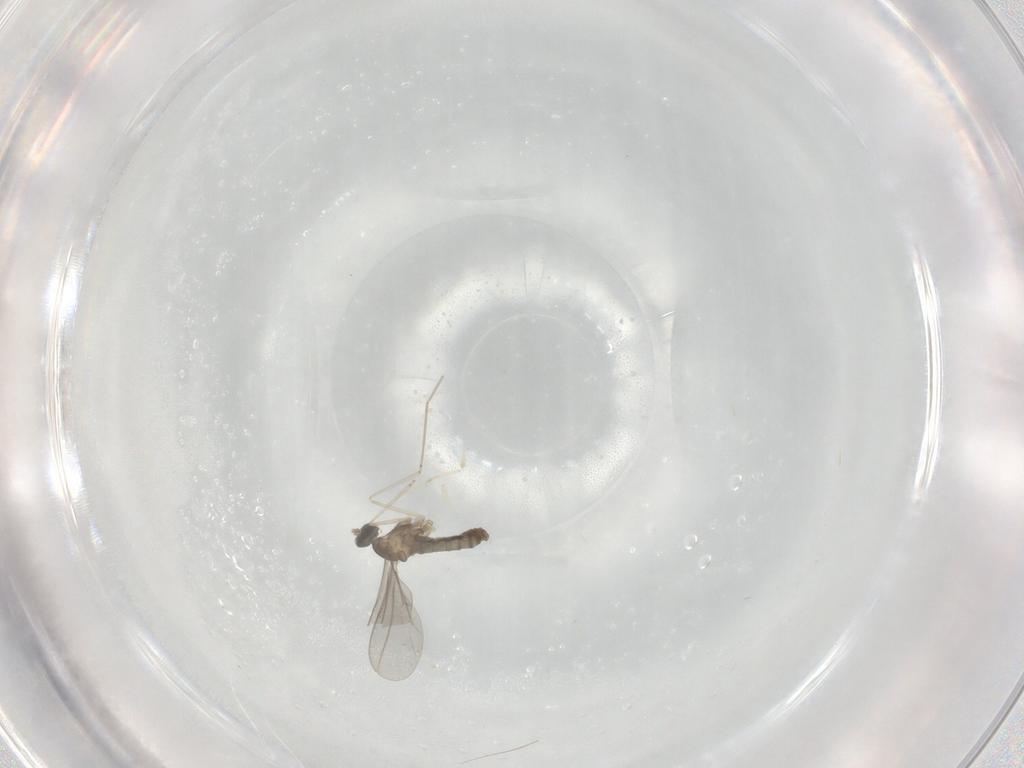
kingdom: Animalia
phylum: Arthropoda
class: Insecta
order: Diptera
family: Cecidomyiidae
